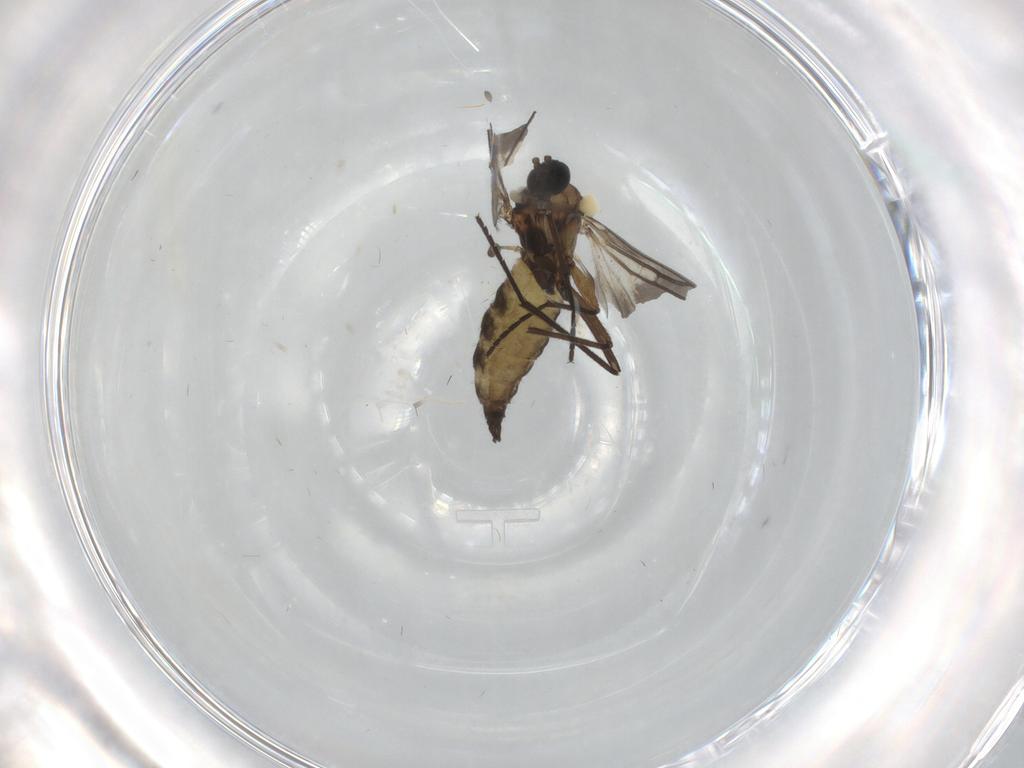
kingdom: Animalia
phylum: Arthropoda
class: Insecta
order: Diptera
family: Sciaridae
